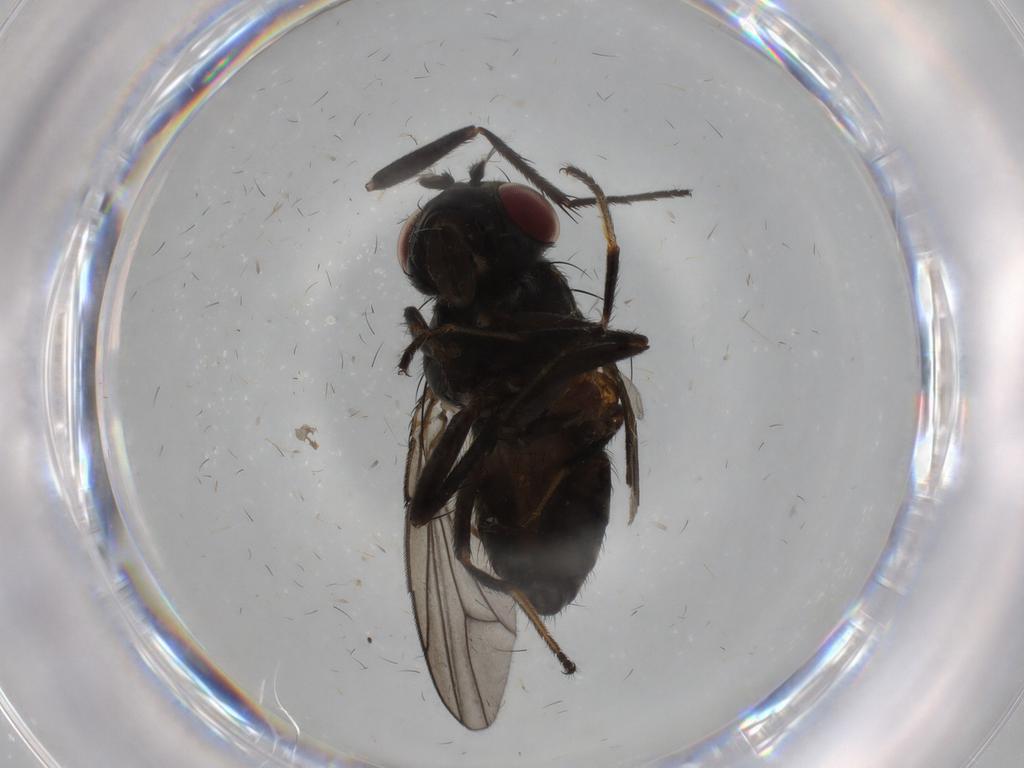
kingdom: Animalia
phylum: Arthropoda
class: Insecta
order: Diptera
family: Ephydridae
